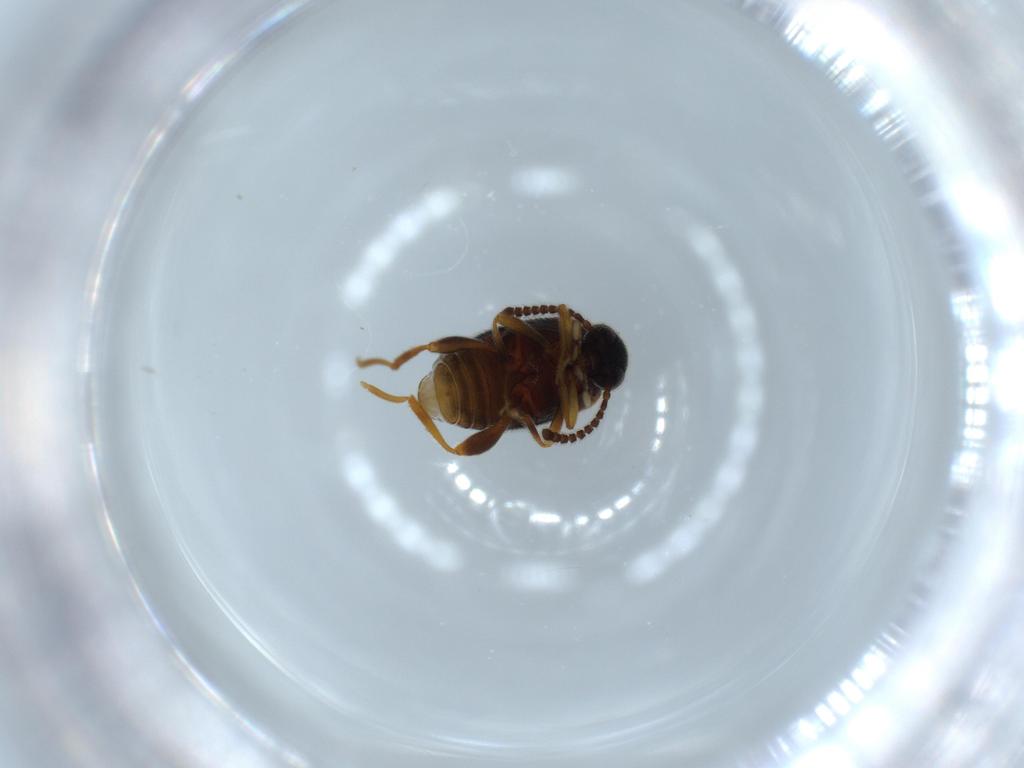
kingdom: Animalia
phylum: Arthropoda
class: Insecta
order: Coleoptera
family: Aderidae
